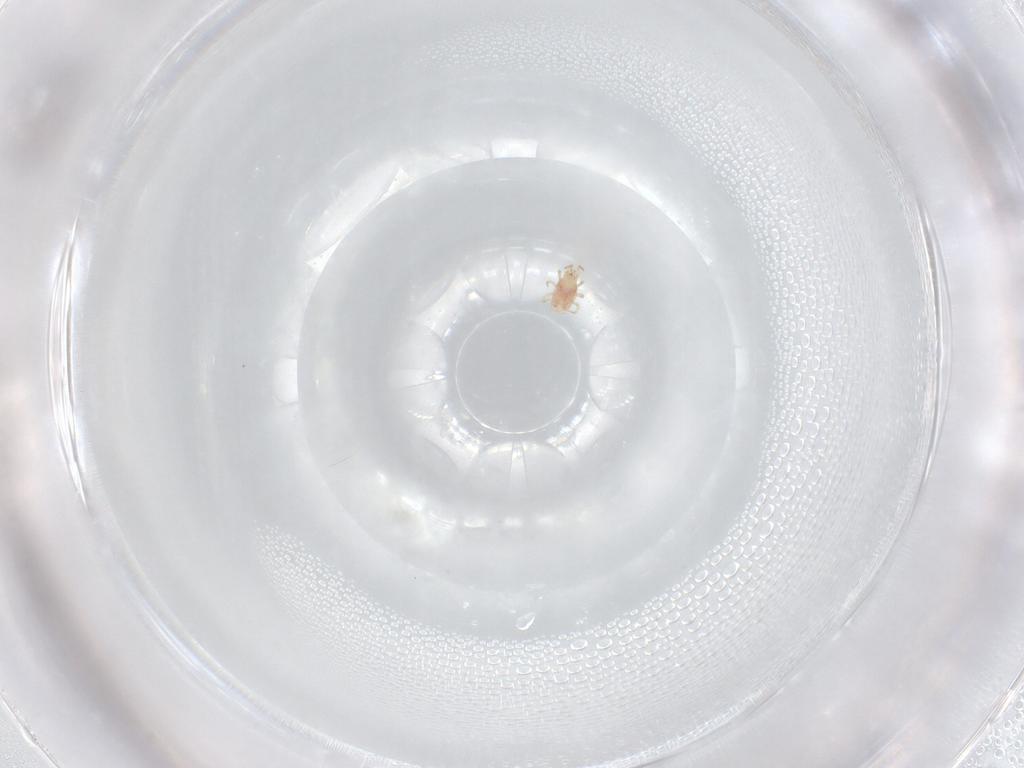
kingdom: Animalia
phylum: Arthropoda
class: Arachnida
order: Mesostigmata
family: Phytoseiidae
